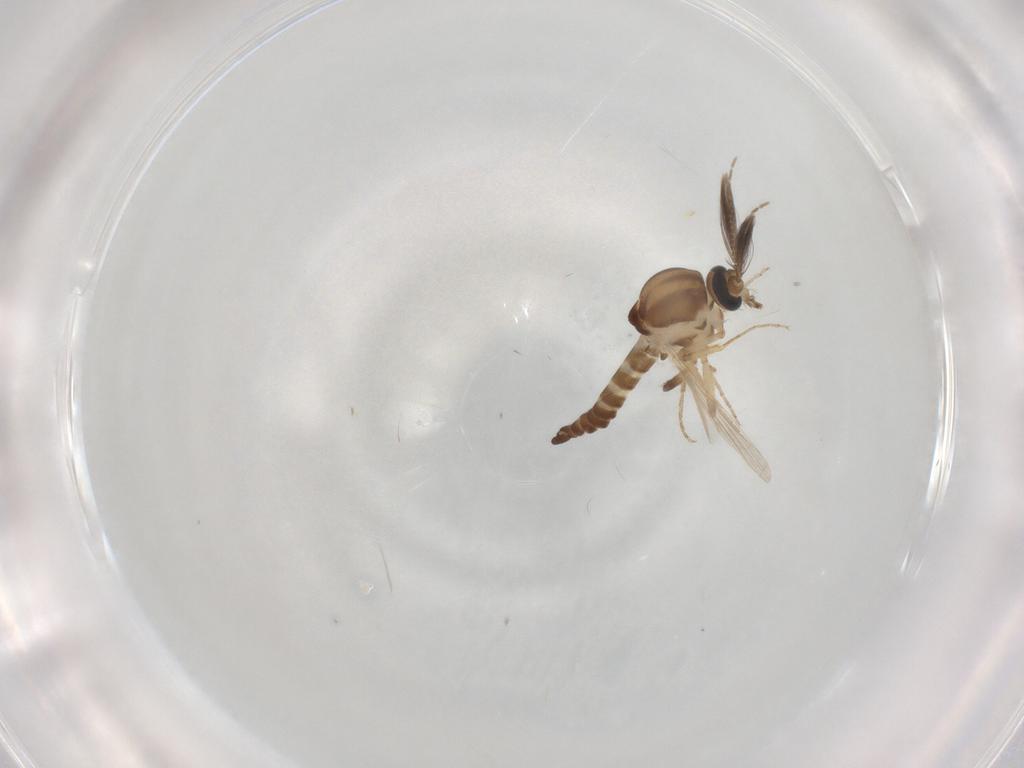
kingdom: Animalia
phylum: Arthropoda
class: Insecta
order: Diptera
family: Ceratopogonidae
